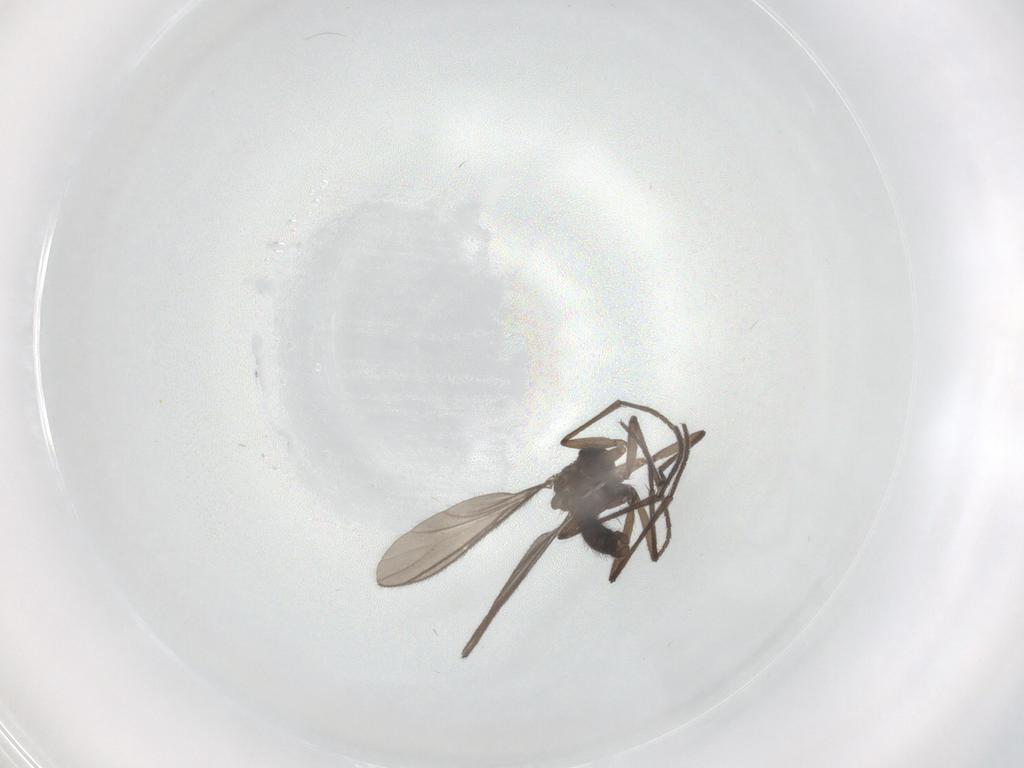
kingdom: Animalia
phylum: Arthropoda
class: Insecta
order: Diptera
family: Sciaridae
